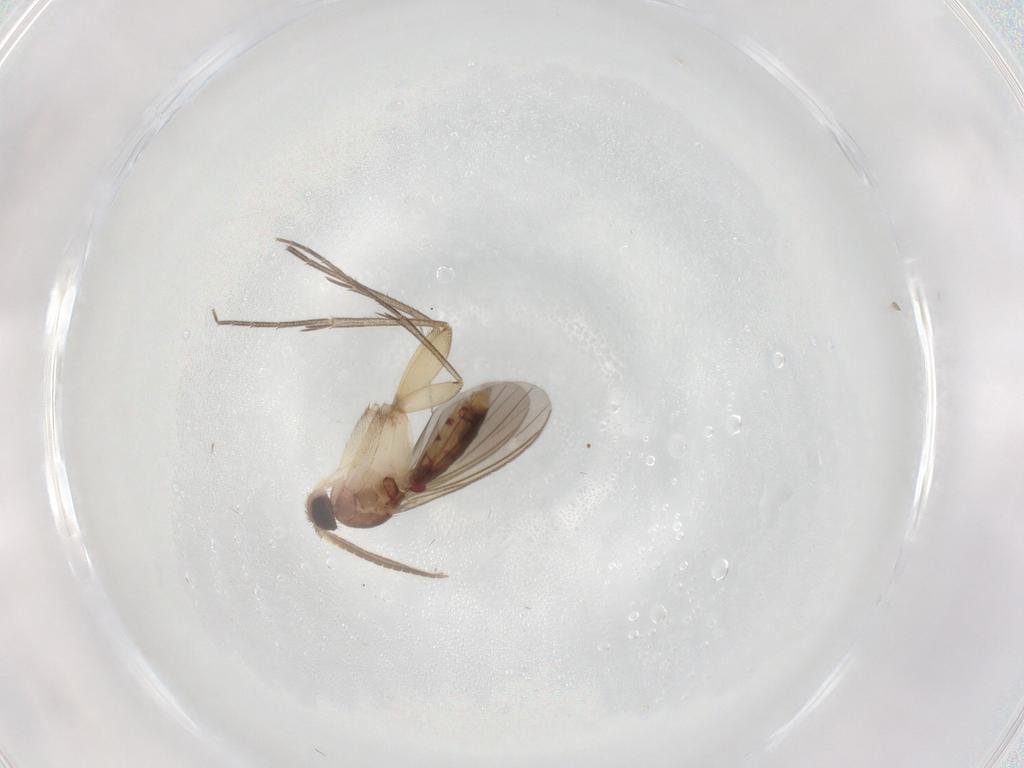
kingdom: Animalia
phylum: Arthropoda
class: Insecta
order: Diptera
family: Mycetophilidae
